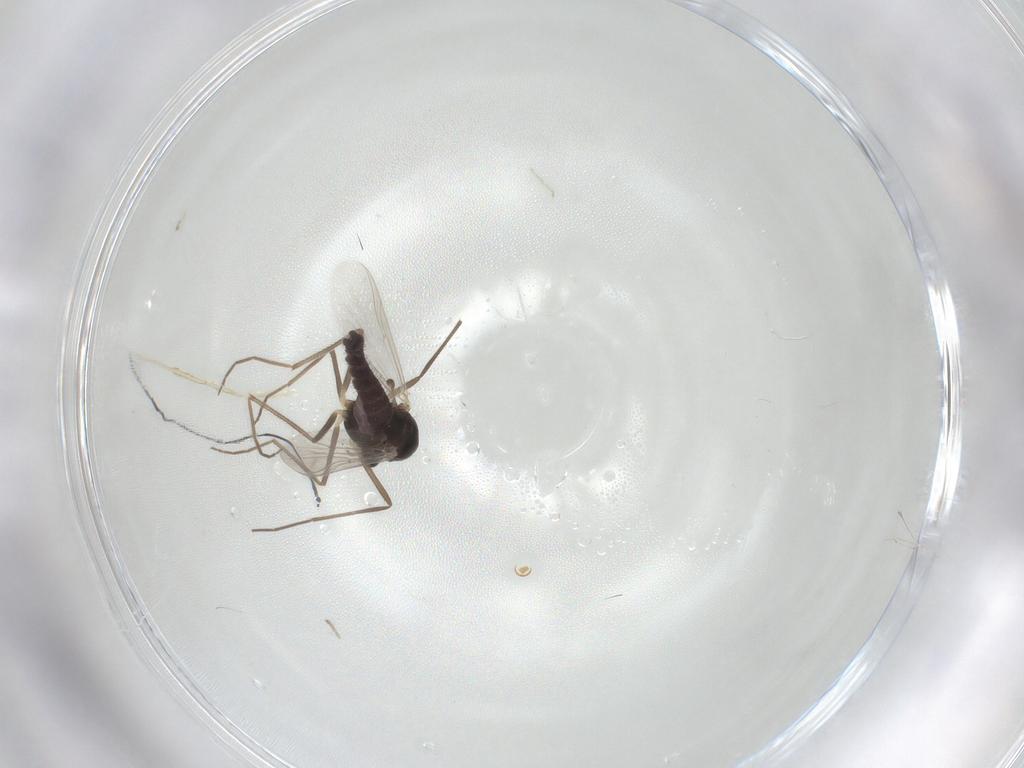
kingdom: Animalia
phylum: Arthropoda
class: Insecta
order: Diptera
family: Chironomidae
